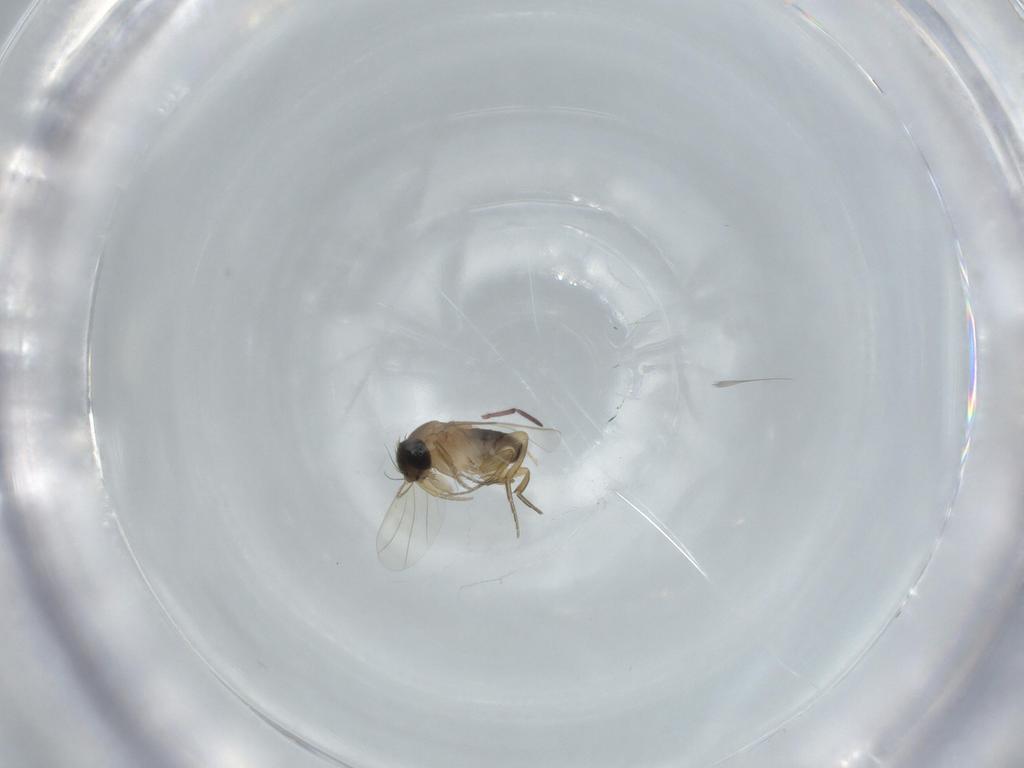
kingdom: Animalia
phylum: Arthropoda
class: Insecta
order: Diptera
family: Phoridae
